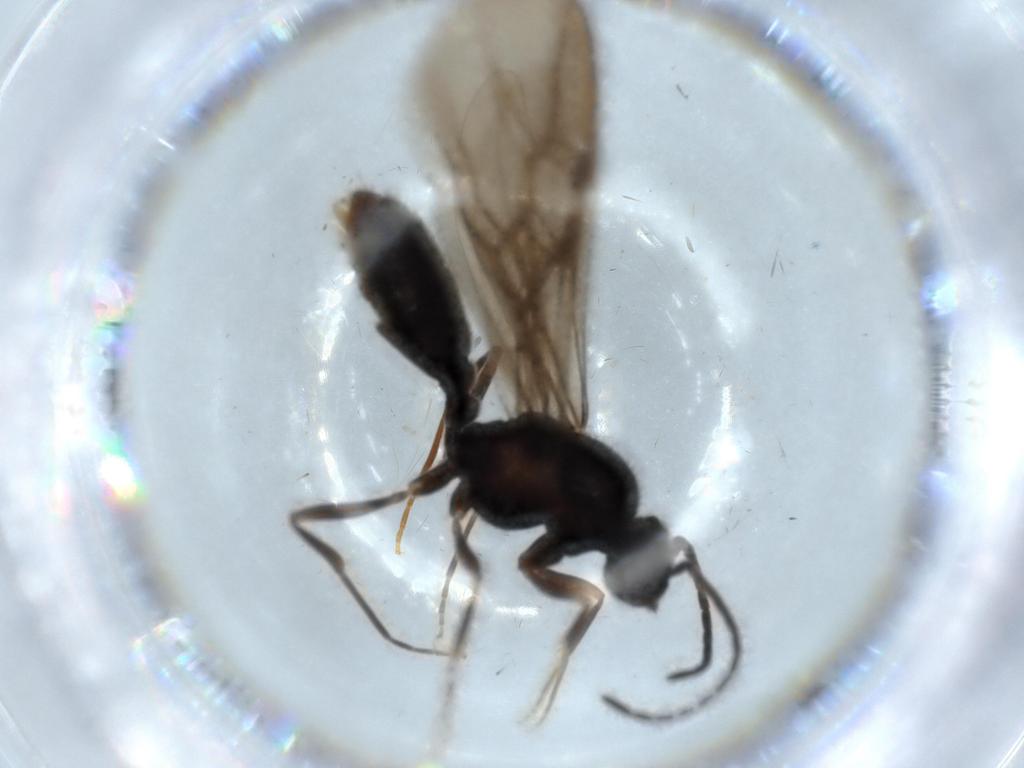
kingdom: Animalia
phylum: Arthropoda
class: Insecta
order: Hymenoptera
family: Formicidae
